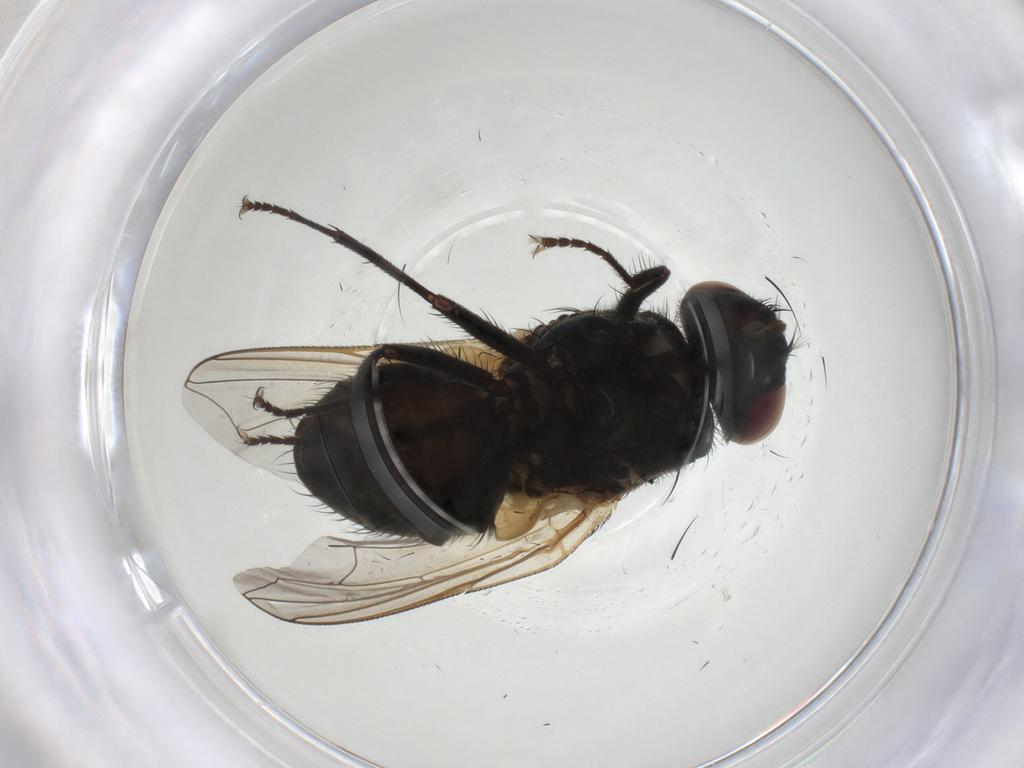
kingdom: Animalia
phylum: Arthropoda
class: Insecta
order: Diptera
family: Muscidae
